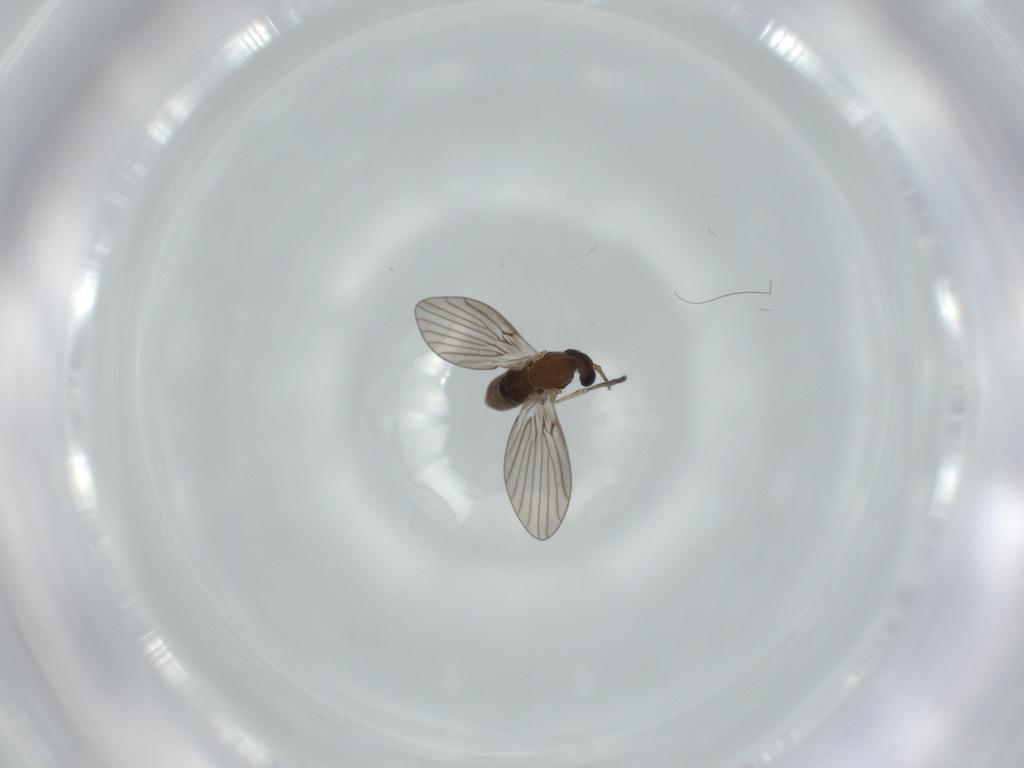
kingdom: Animalia
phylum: Arthropoda
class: Insecta
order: Diptera
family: Psychodidae
